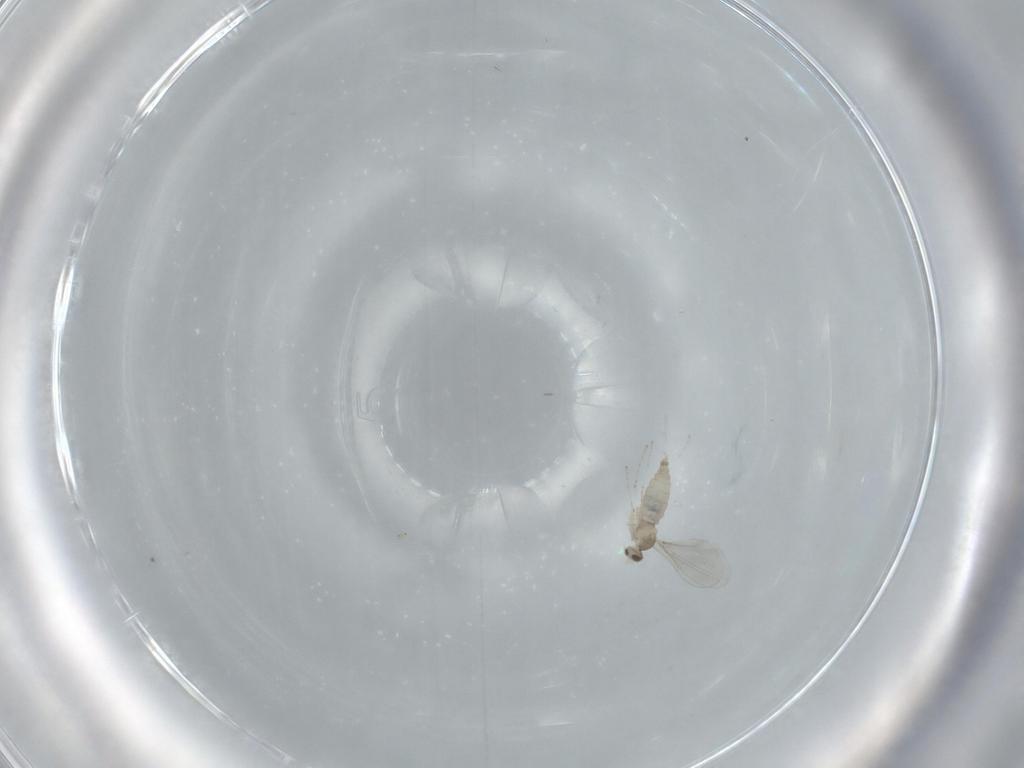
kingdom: Animalia
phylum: Arthropoda
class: Insecta
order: Diptera
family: Cecidomyiidae
